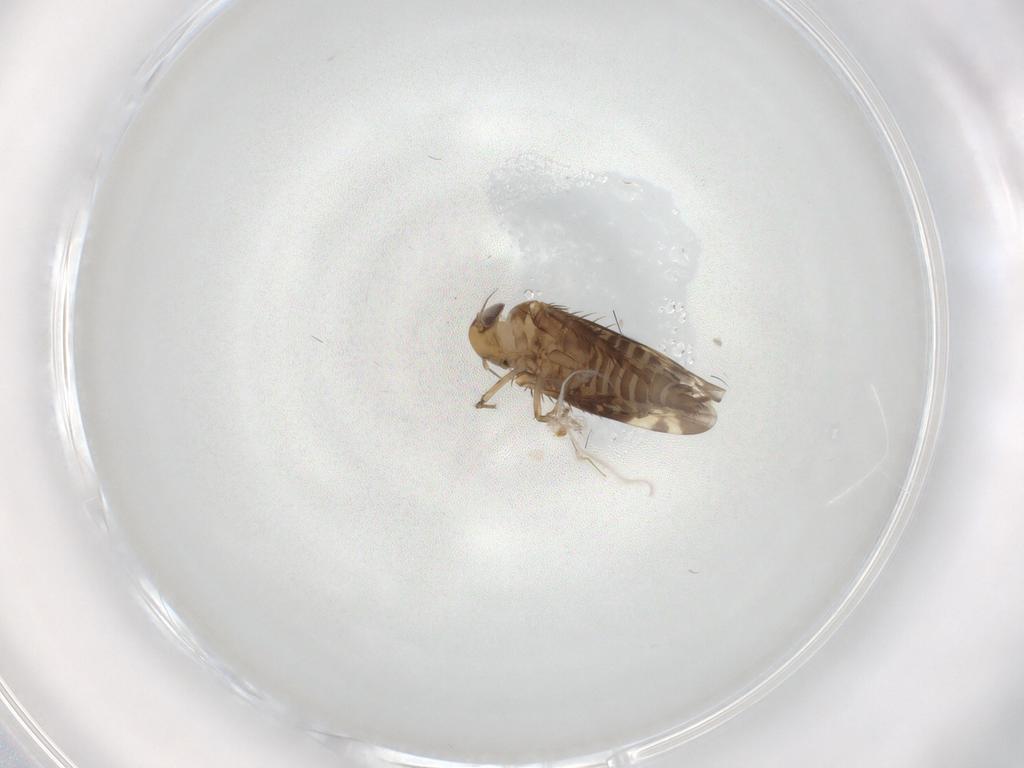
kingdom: Animalia
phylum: Arthropoda
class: Insecta
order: Hemiptera
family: Cicadellidae
